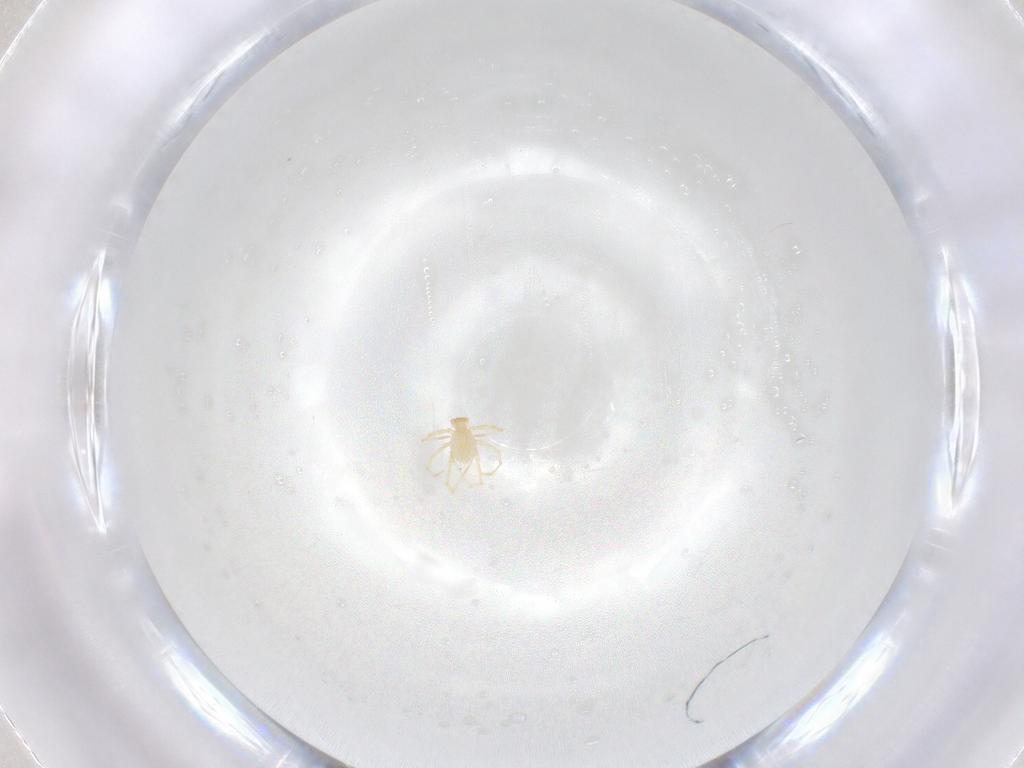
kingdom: Animalia
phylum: Arthropoda
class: Arachnida
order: Trombidiformes
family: Erythraeidae
